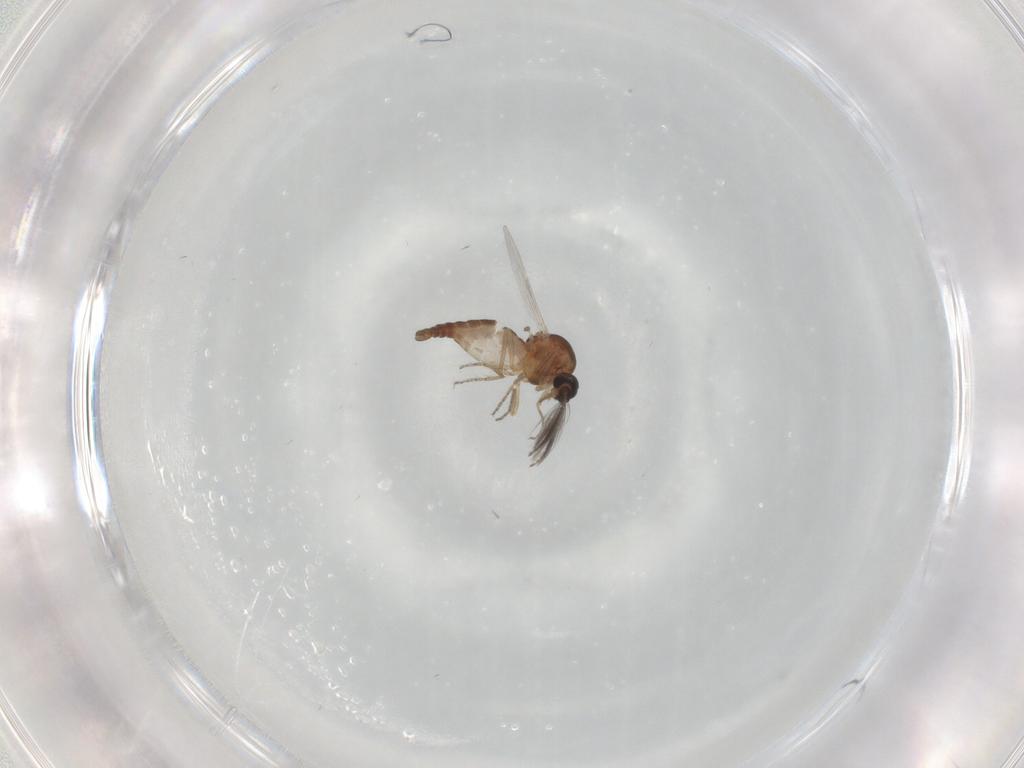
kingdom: Animalia
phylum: Arthropoda
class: Insecta
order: Diptera
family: Ceratopogonidae
